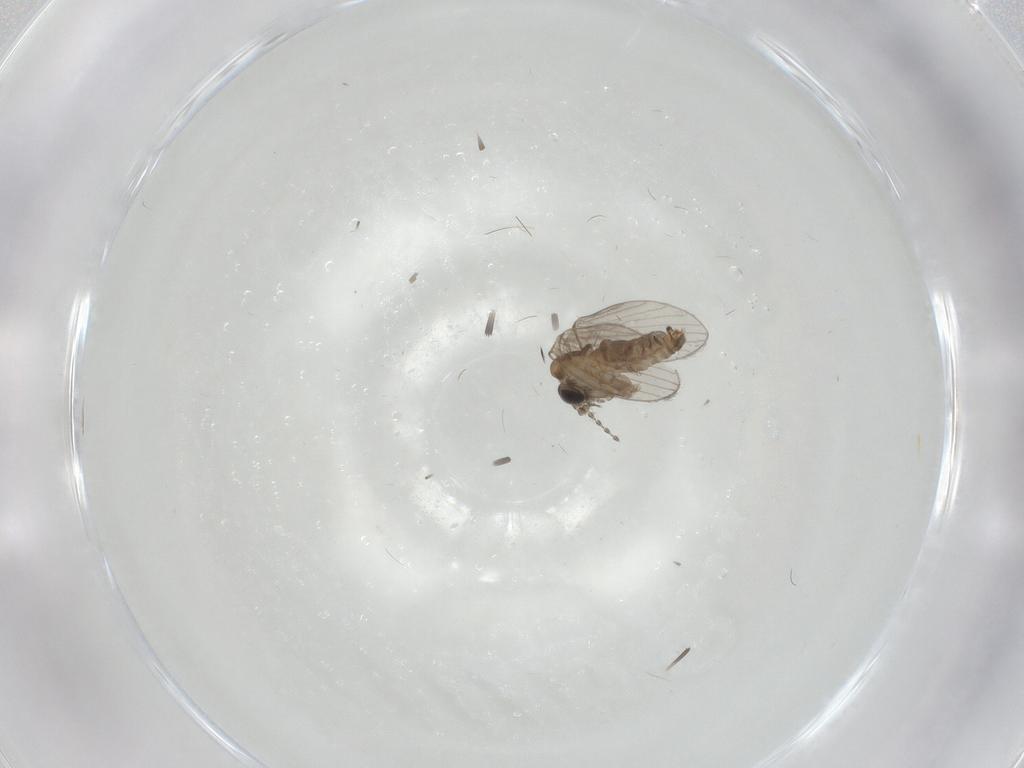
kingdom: Animalia
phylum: Arthropoda
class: Insecta
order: Diptera
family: Psychodidae
